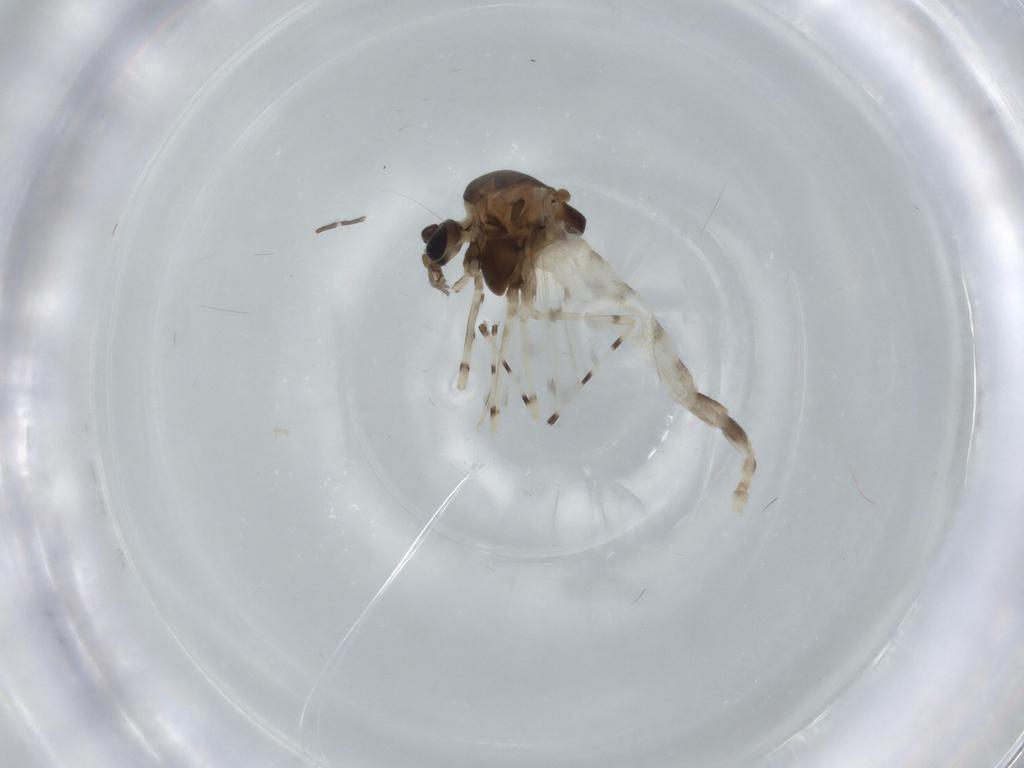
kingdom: Animalia
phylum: Arthropoda
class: Insecta
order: Diptera
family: Chironomidae
